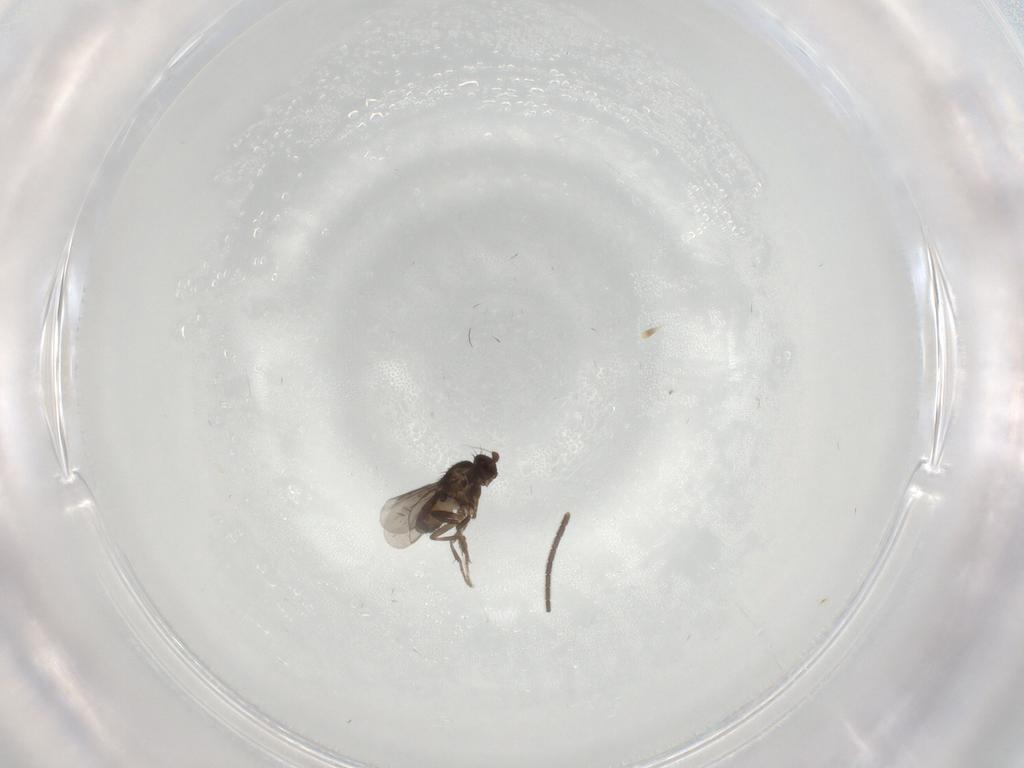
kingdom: Animalia
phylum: Arthropoda
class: Insecta
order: Diptera
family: Sciaridae
